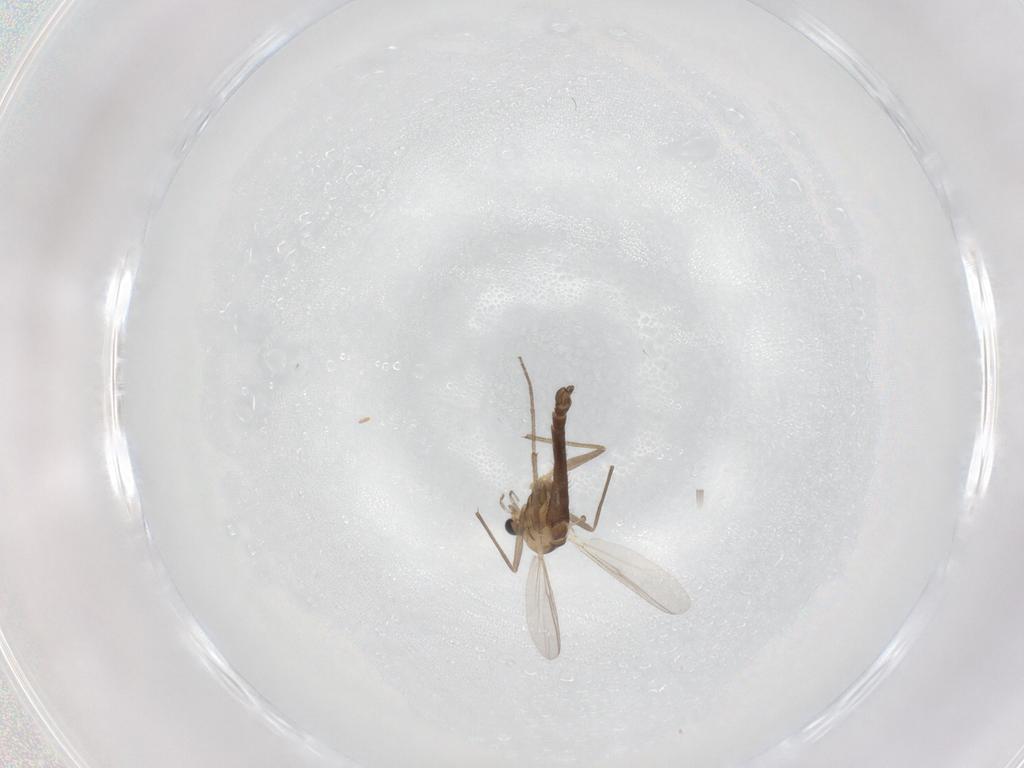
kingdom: Animalia
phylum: Arthropoda
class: Insecta
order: Diptera
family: Chironomidae
